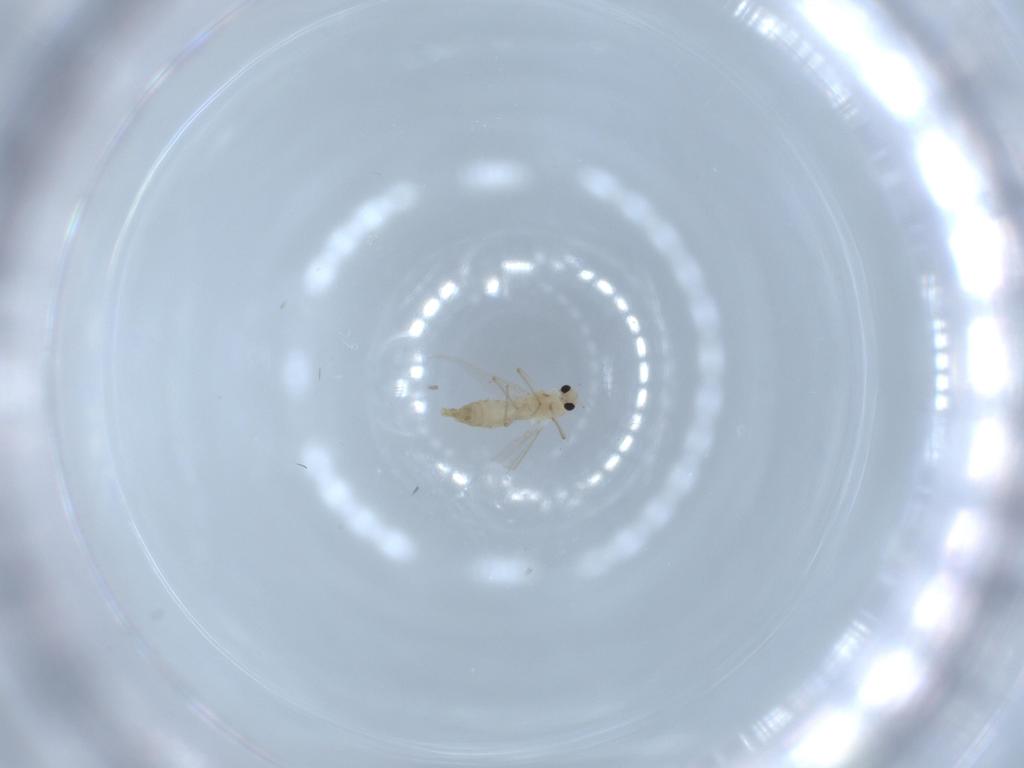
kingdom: Animalia
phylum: Arthropoda
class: Insecta
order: Diptera
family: Chironomidae
